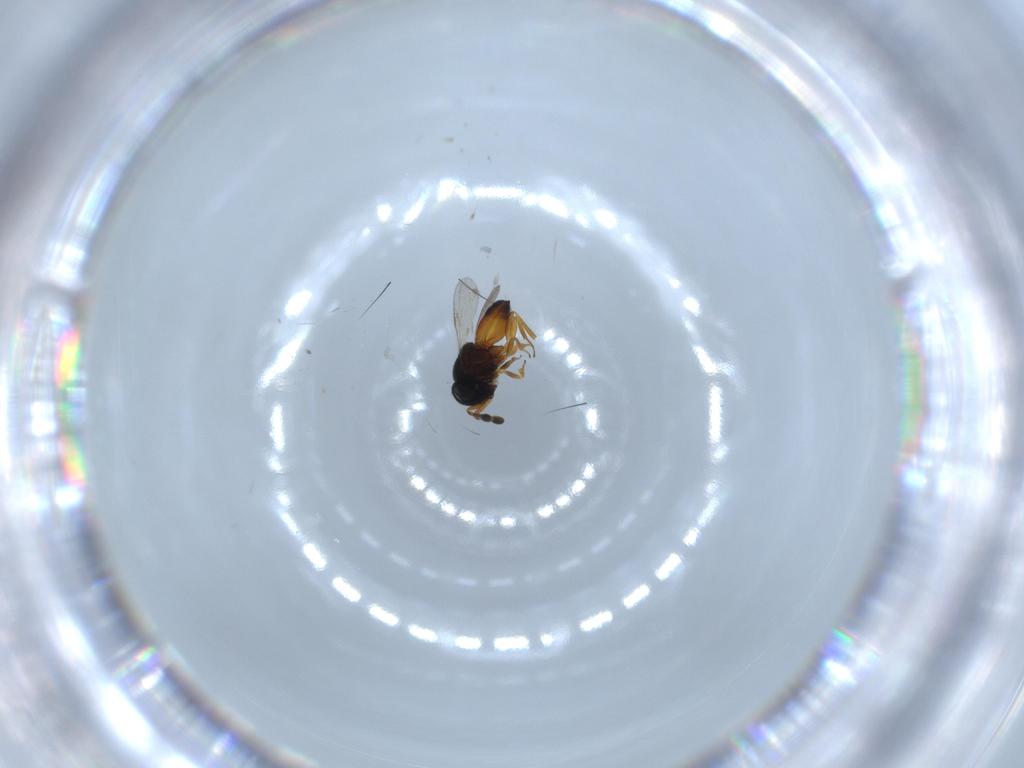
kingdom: Animalia
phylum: Arthropoda
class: Insecta
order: Hymenoptera
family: Scelionidae
